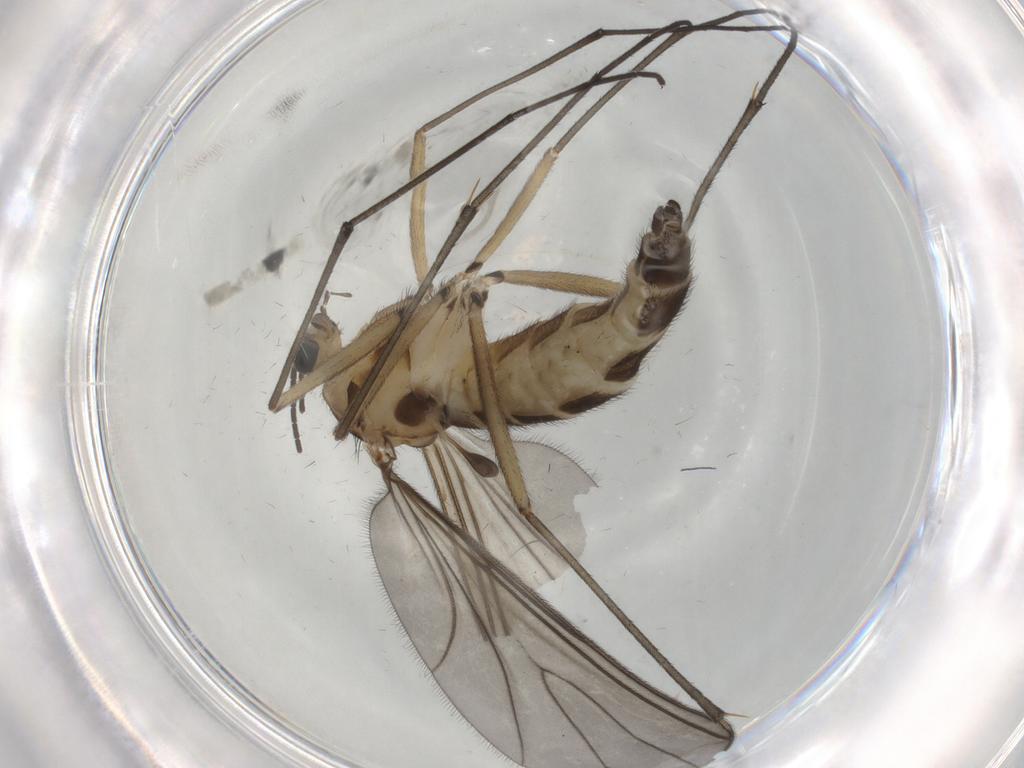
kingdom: Animalia
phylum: Arthropoda
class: Insecta
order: Diptera
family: Sciaridae
